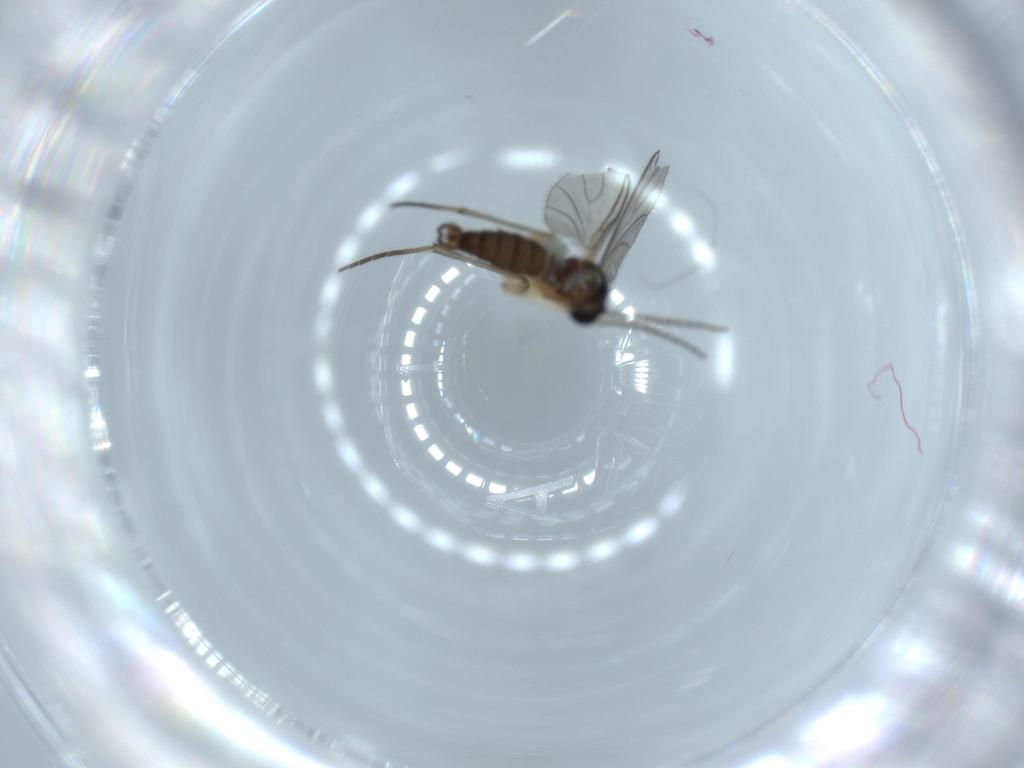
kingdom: Animalia
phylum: Arthropoda
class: Insecta
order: Diptera
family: Sciaridae
